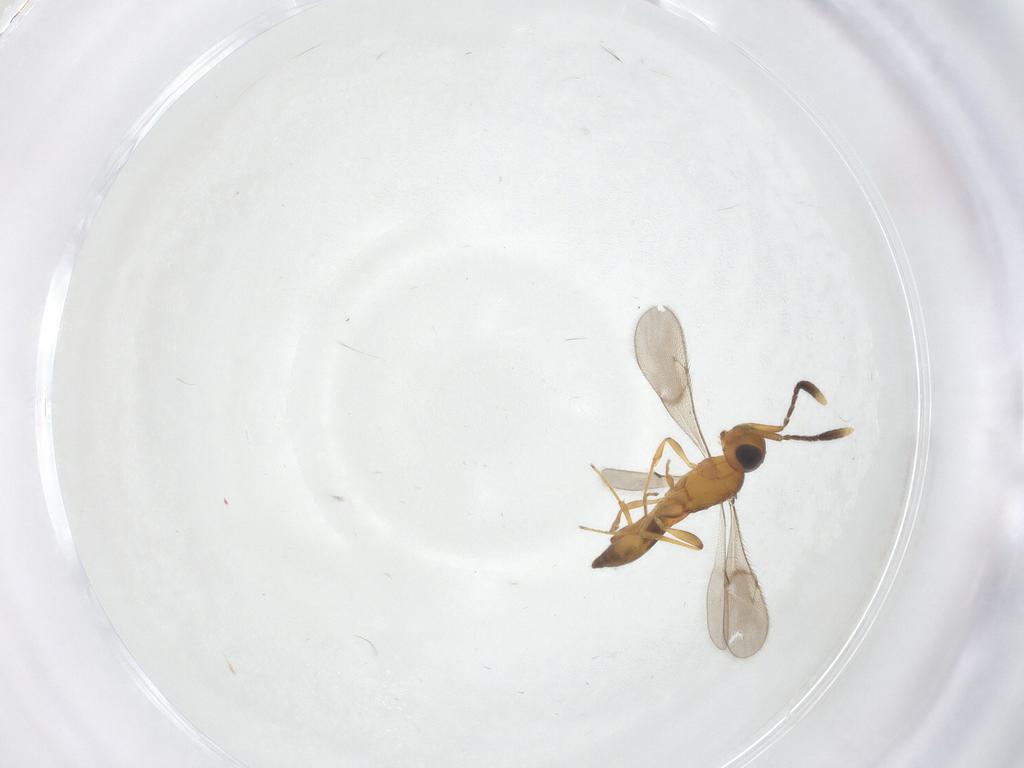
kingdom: Animalia
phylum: Arthropoda
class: Insecta
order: Hymenoptera
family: Scelionidae
